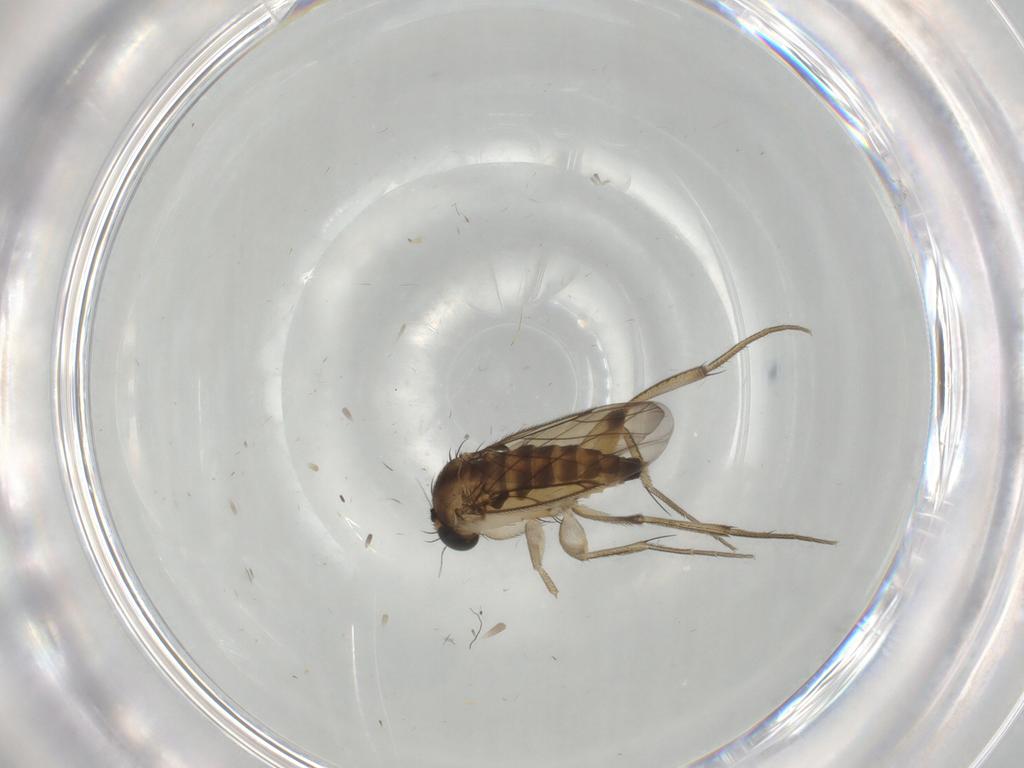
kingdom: Animalia
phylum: Arthropoda
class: Insecta
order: Diptera
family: Phoridae
